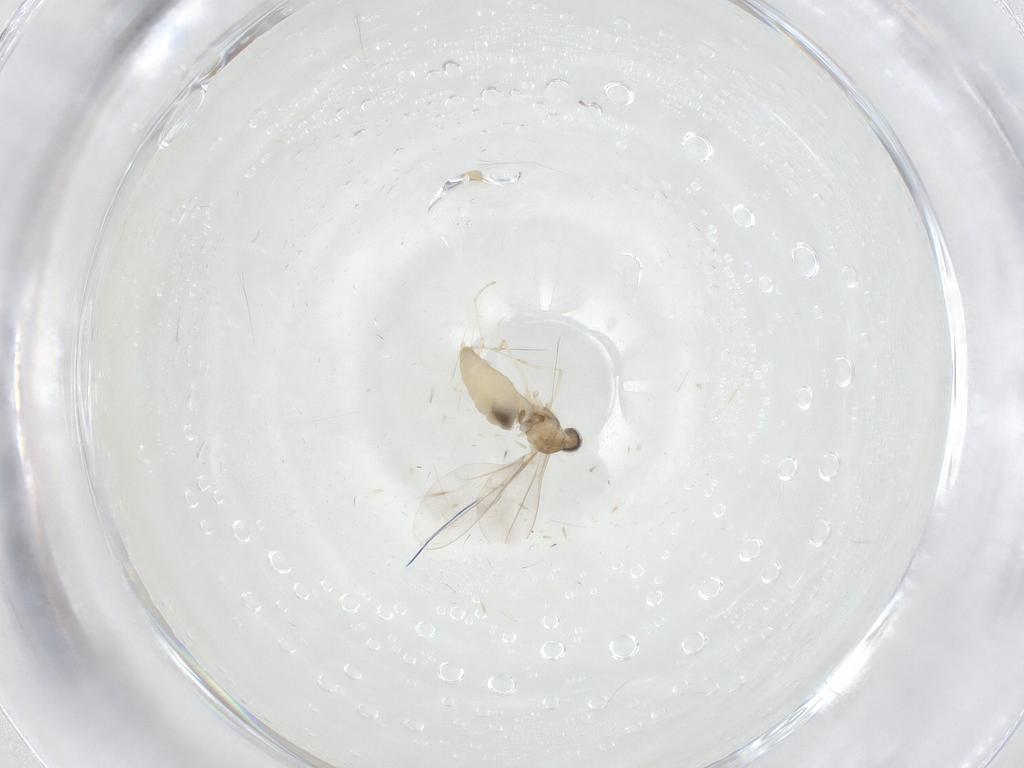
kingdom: Animalia
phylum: Arthropoda
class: Insecta
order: Diptera
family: Cecidomyiidae
